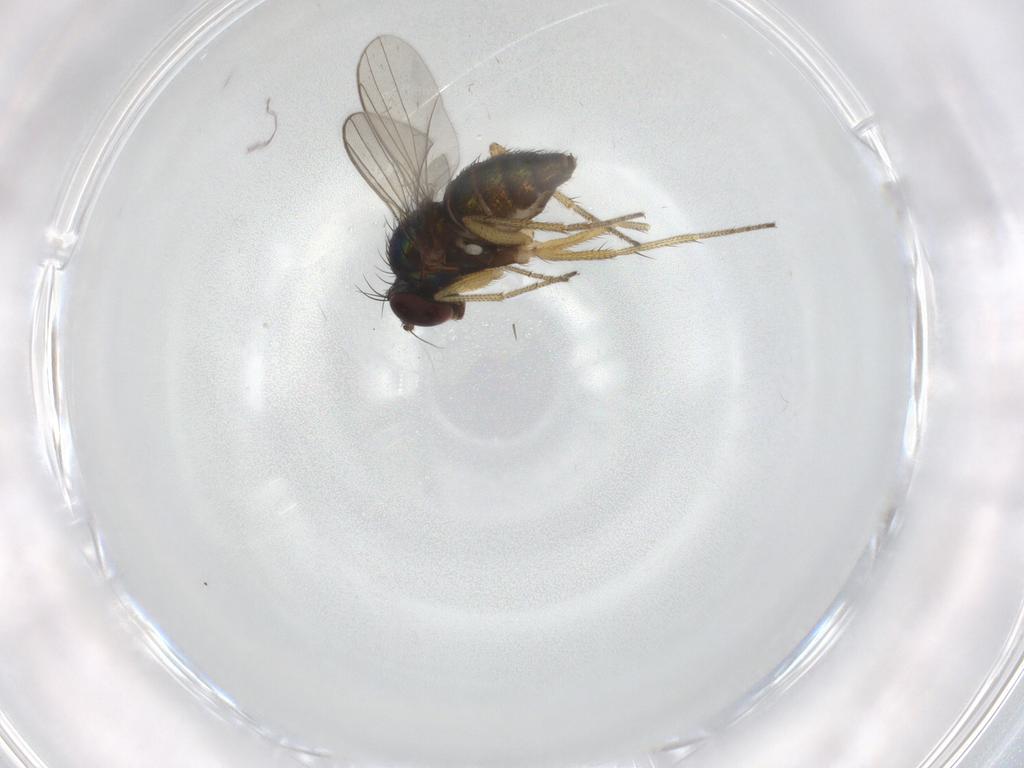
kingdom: Animalia
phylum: Arthropoda
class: Insecta
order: Diptera
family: Dolichopodidae
